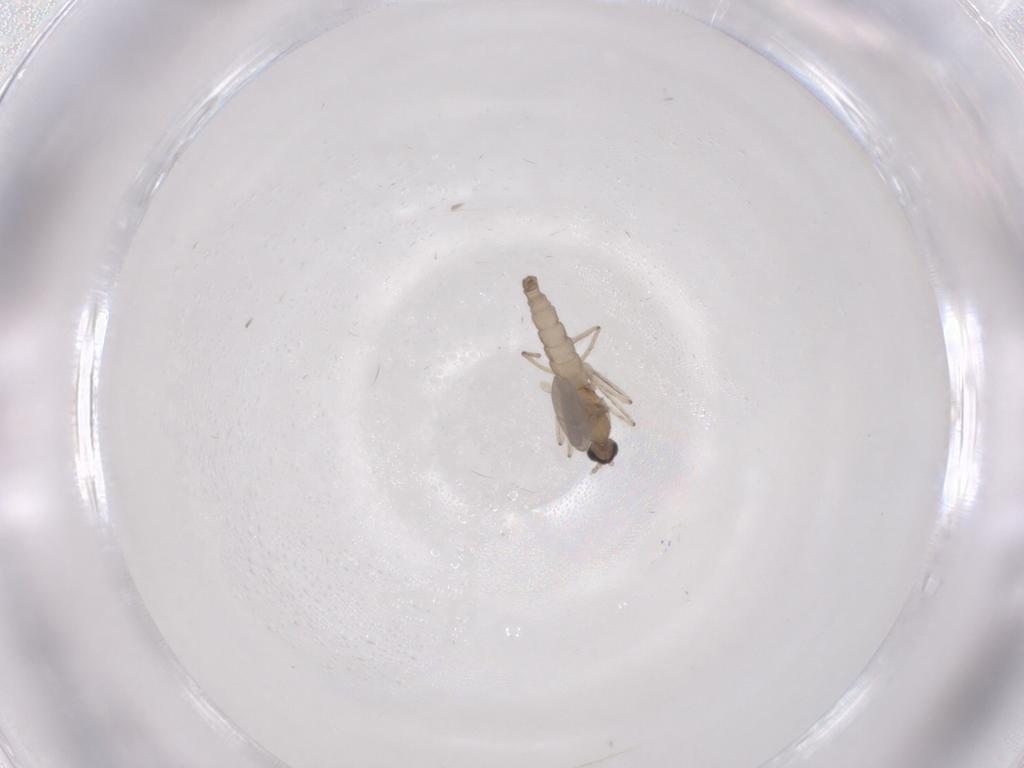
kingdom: Animalia
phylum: Arthropoda
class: Insecta
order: Diptera
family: Cecidomyiidae
